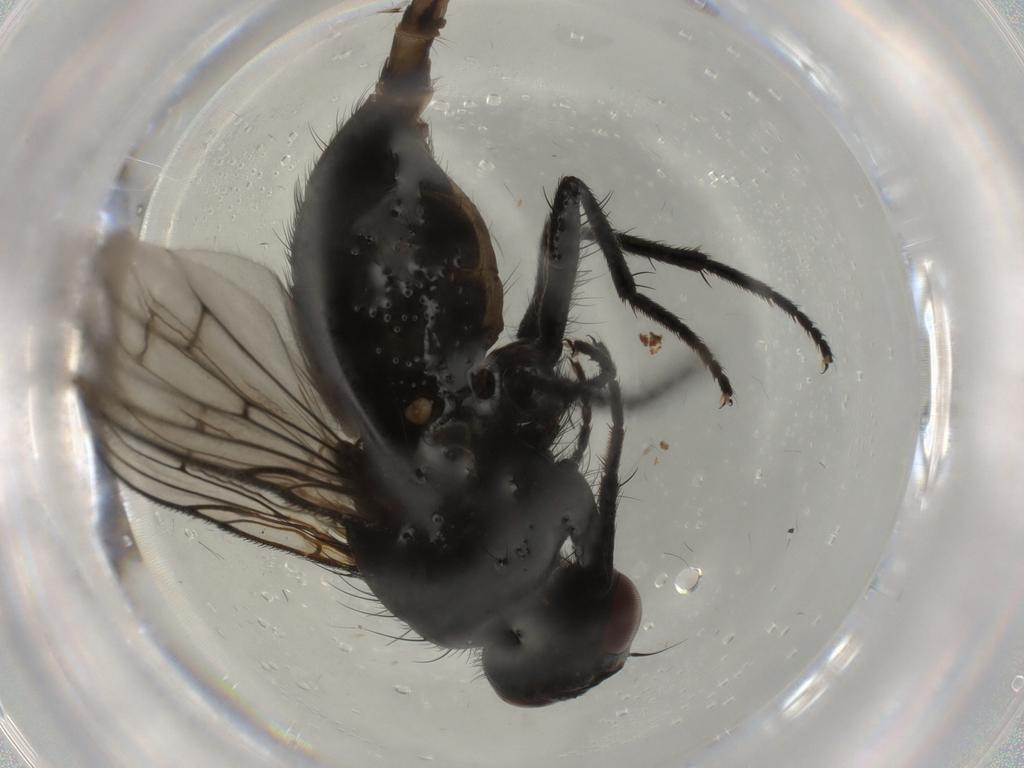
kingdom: Animalia
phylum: Arthropoda
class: Insecta
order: Diptera
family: Muscidae
